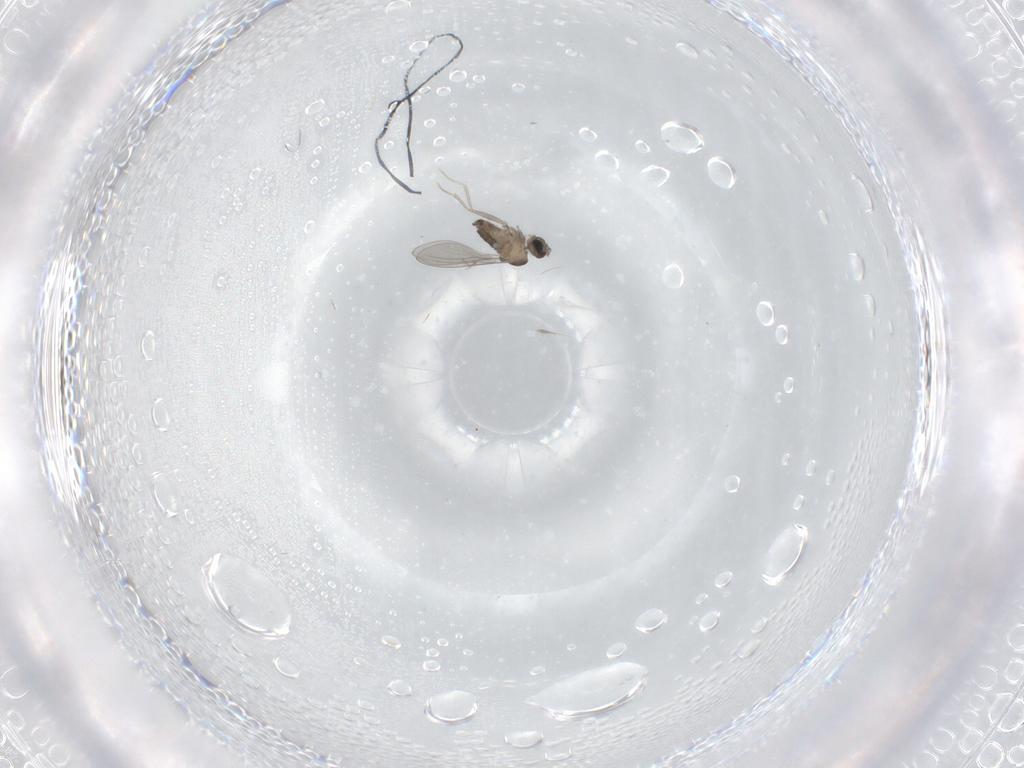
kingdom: Animalia
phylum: Arthropoda
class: Insecta
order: Diptera
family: Cecidomyiidae
